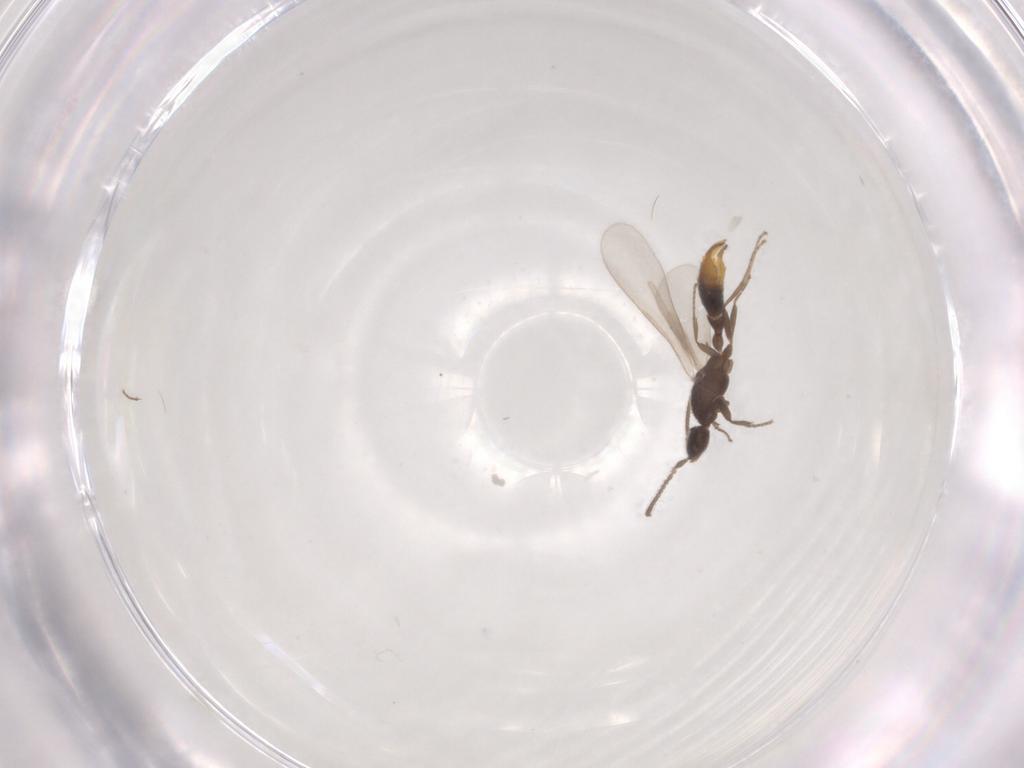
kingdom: Animalia
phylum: Arthropoda
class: Insecta
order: Hymenoptera
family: Formicidae
